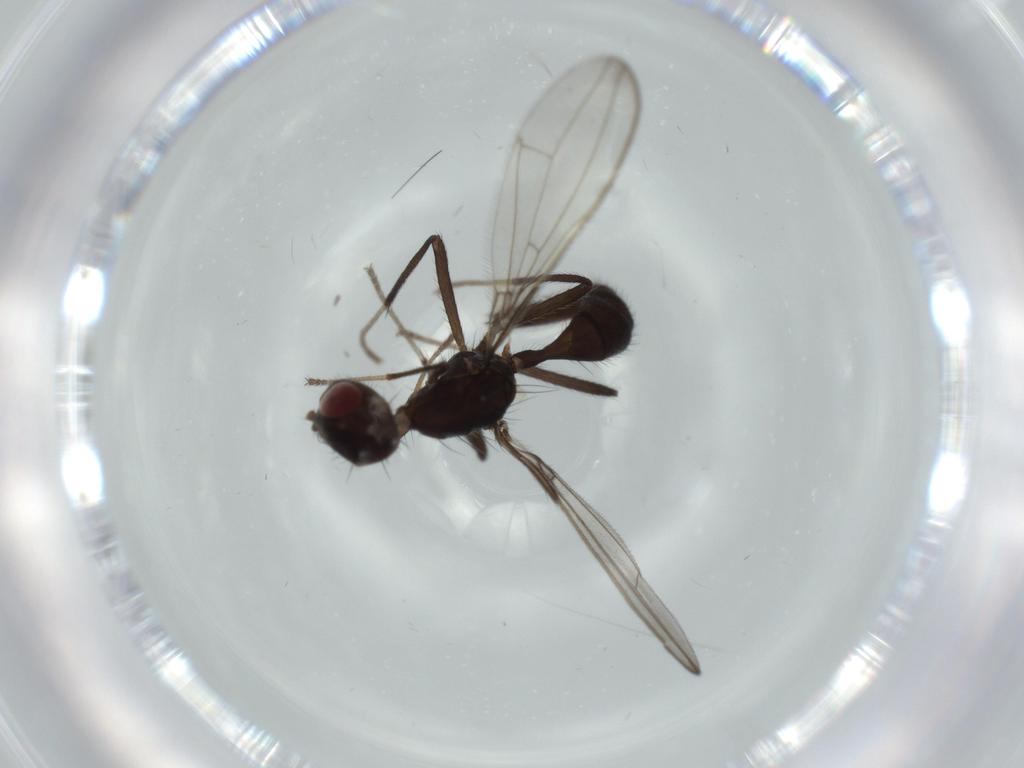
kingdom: Animalia
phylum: Arthropoda
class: Insecta
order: Diptera
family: Richardiidae
